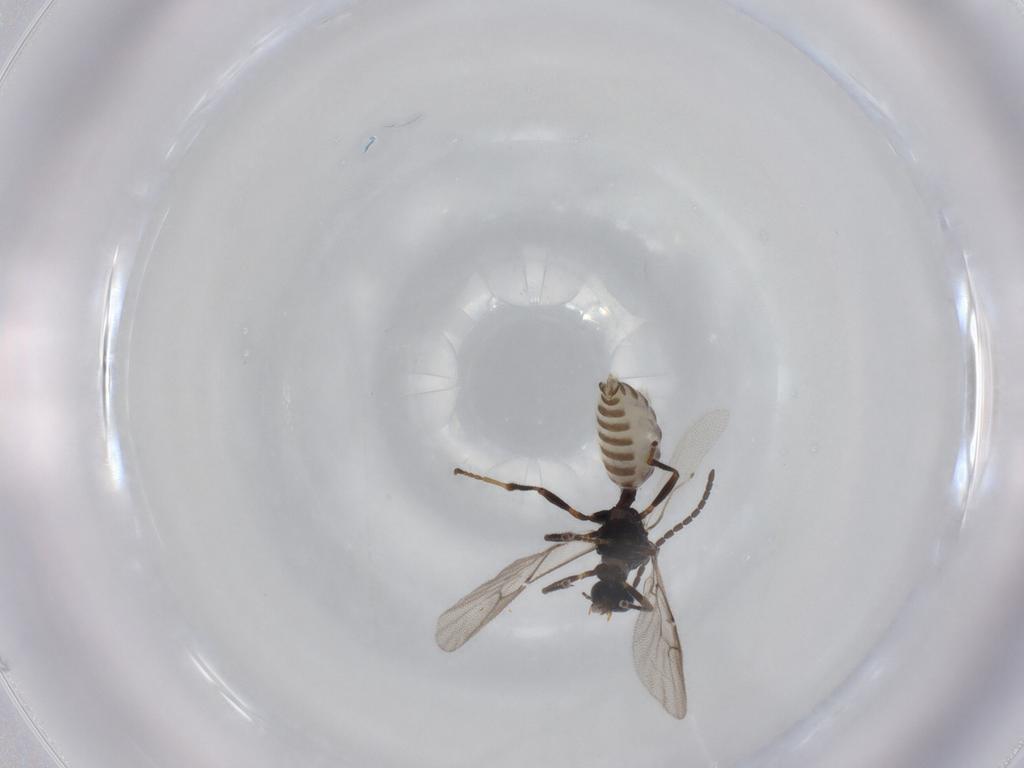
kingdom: Animalia
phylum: Arthropoda
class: Insecta
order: Hymenoptera
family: Braconidae
